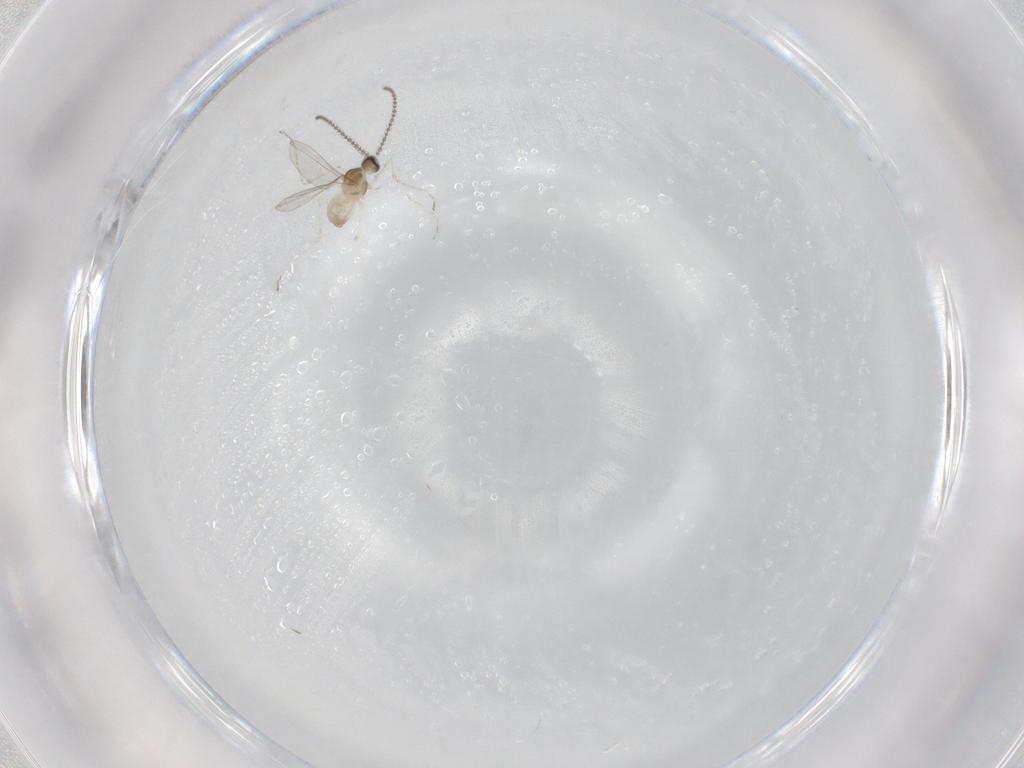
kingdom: Animalia
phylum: Arthropoda
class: Insecta
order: Diptera
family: Cecidomyiidae
